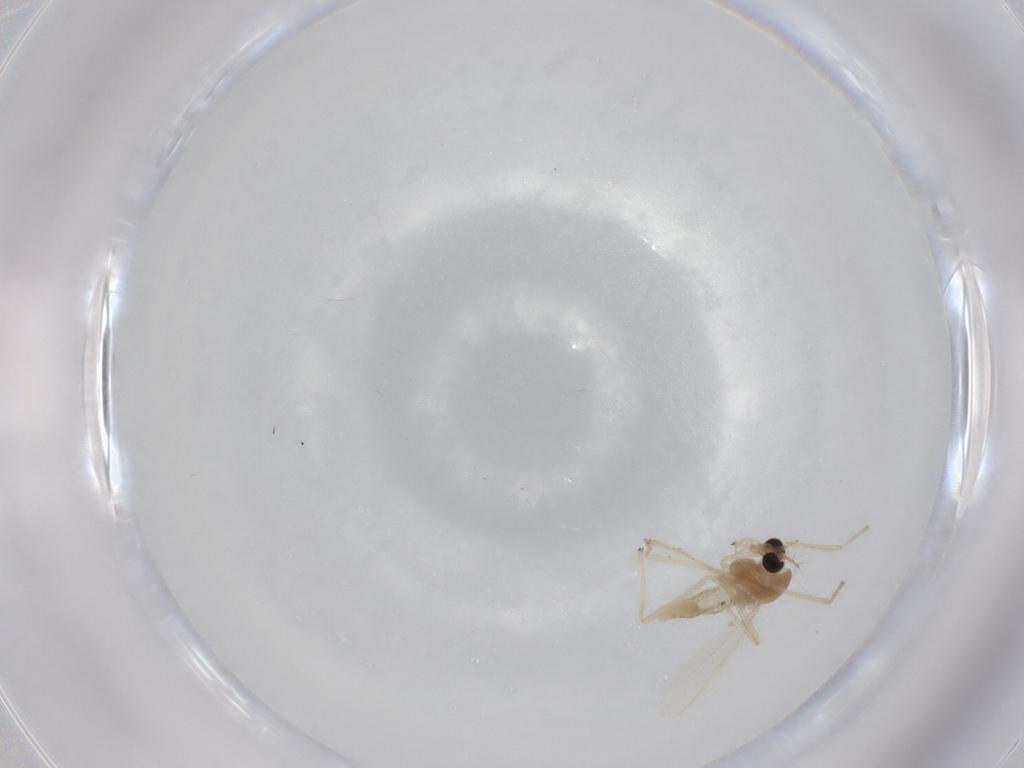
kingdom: Animalia
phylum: Arthropoda
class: Insecta
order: Diptera
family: Chironomidae
